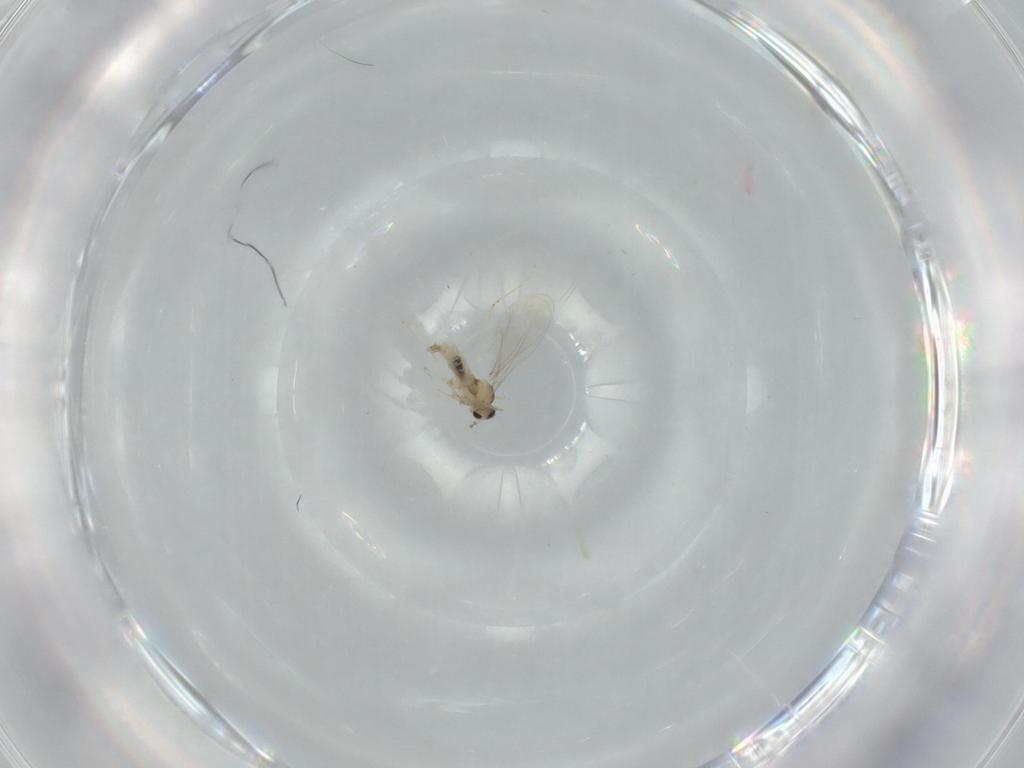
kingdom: Animalia
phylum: Arthropoda
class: Insecta
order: Diptera
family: Cecidomyiidae
